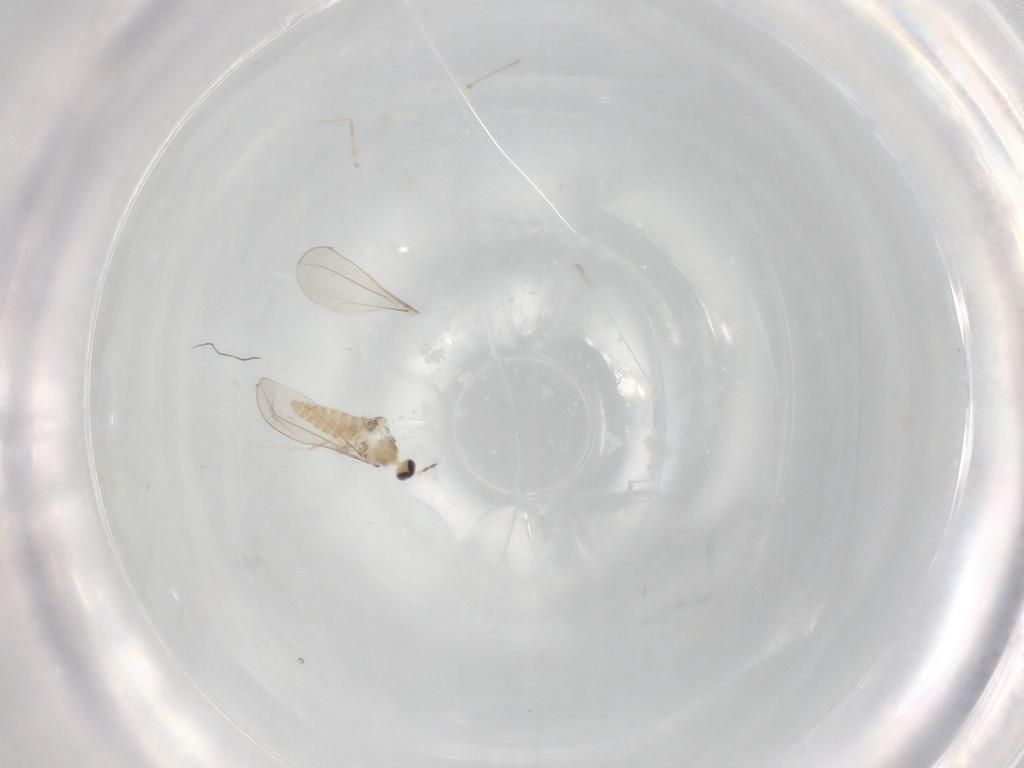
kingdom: Animalia
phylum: Arthropoda
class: Insecta
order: Diptera
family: Cecidomyiidae
